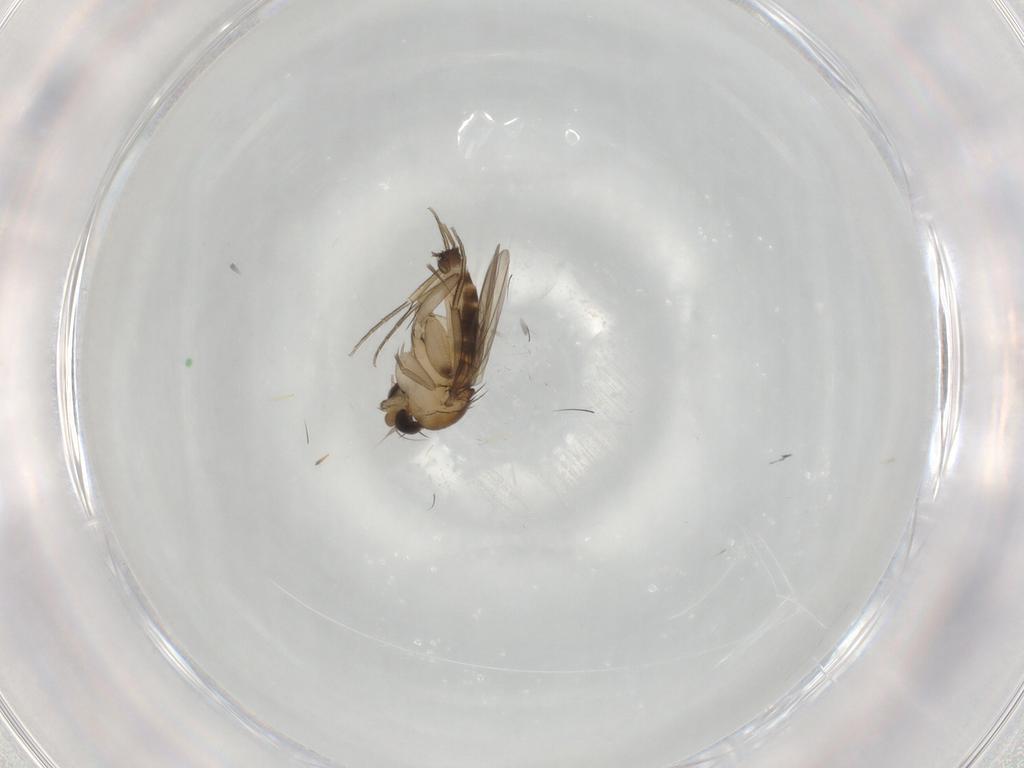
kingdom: Animalia
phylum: Arthropoda
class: Insecta
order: Diptera
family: Phoridae
